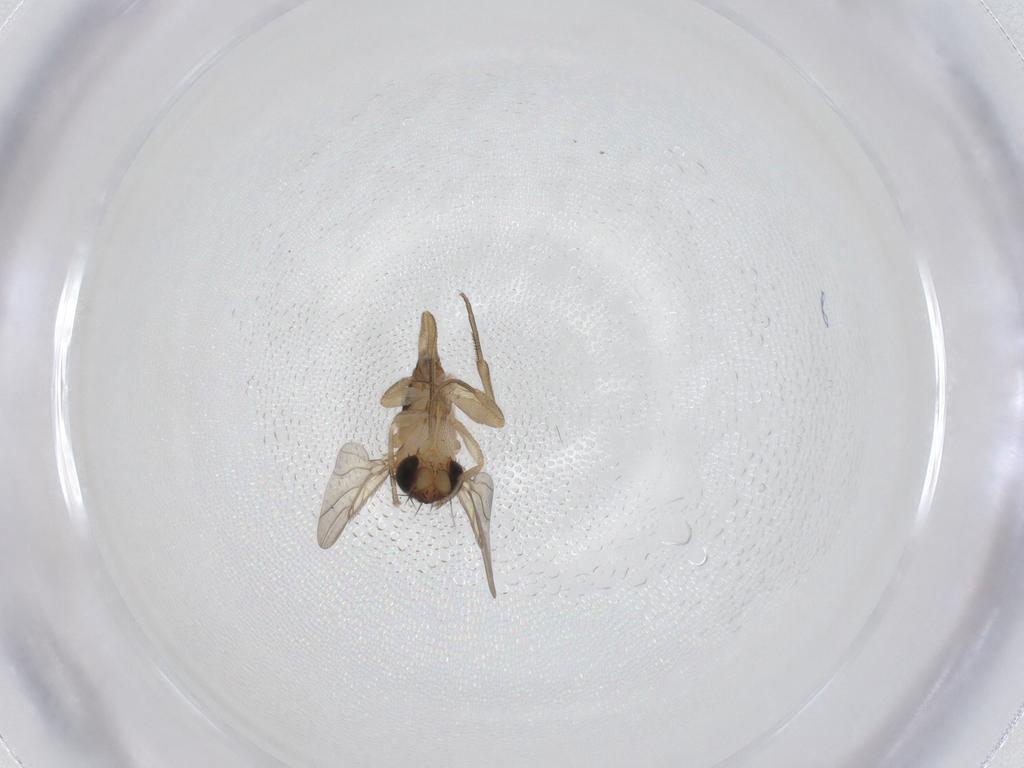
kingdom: Animalia
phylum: Arthropoda
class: Insecta
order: Diptera
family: Phoridae
